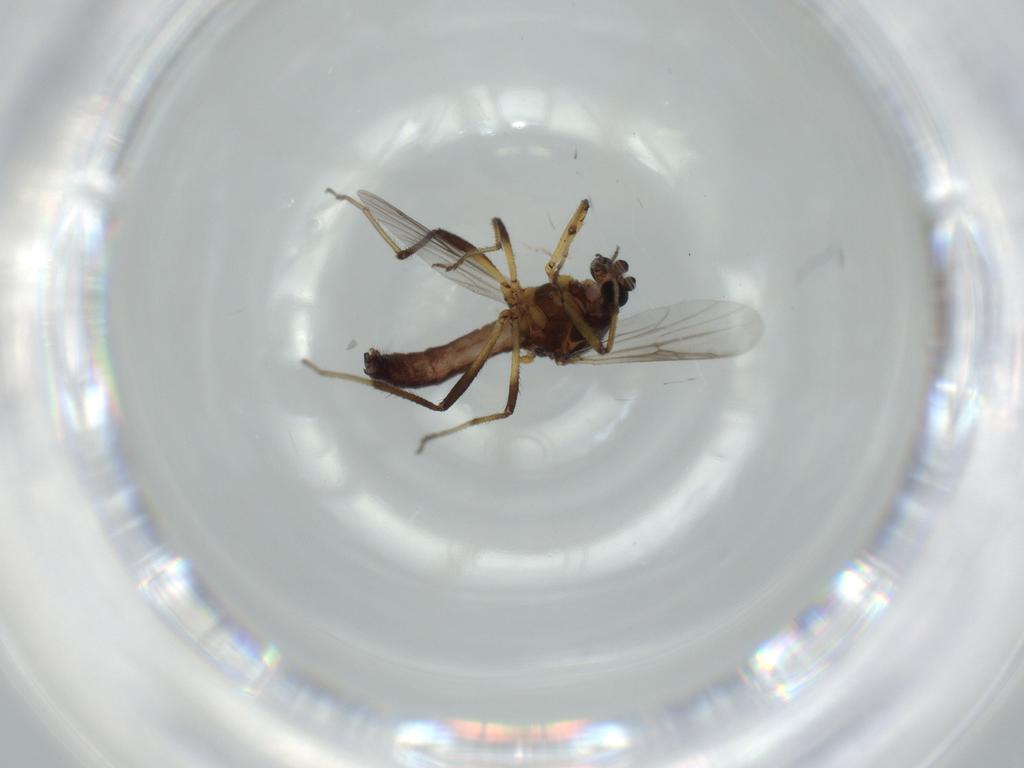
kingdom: Animalia
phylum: Arthropoda
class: Insecta
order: Diptera
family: Ceratopogonidae
